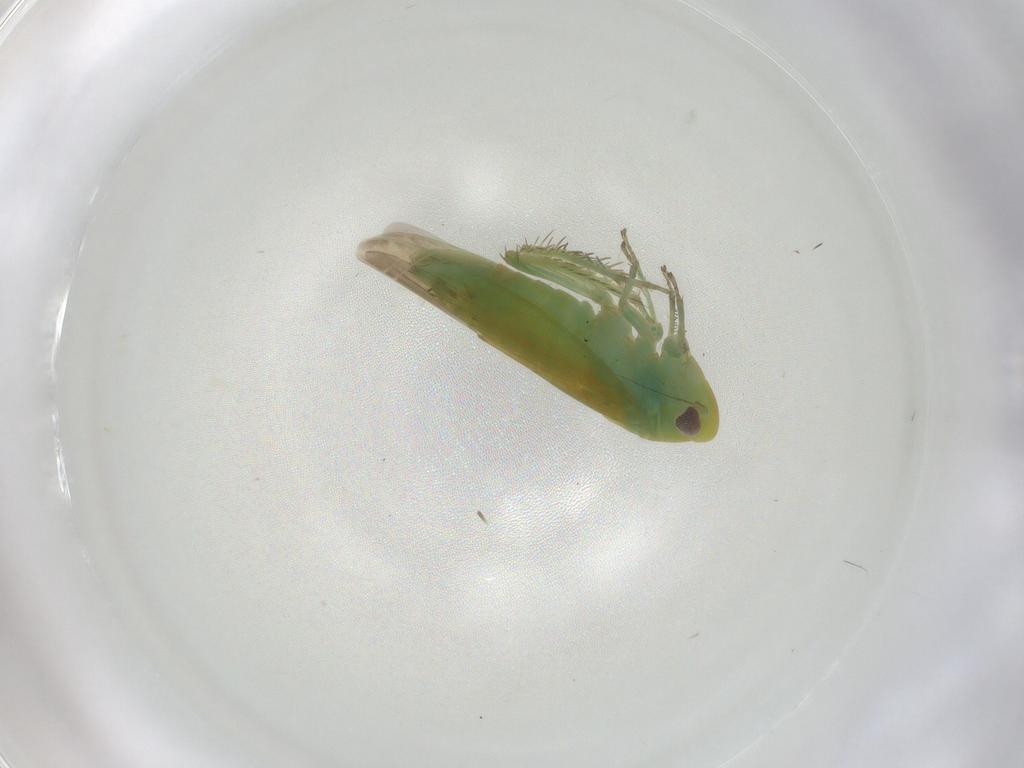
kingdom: Animalia
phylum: Arthropoda
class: Insecta
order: Hemiptera
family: Cicadellidae
